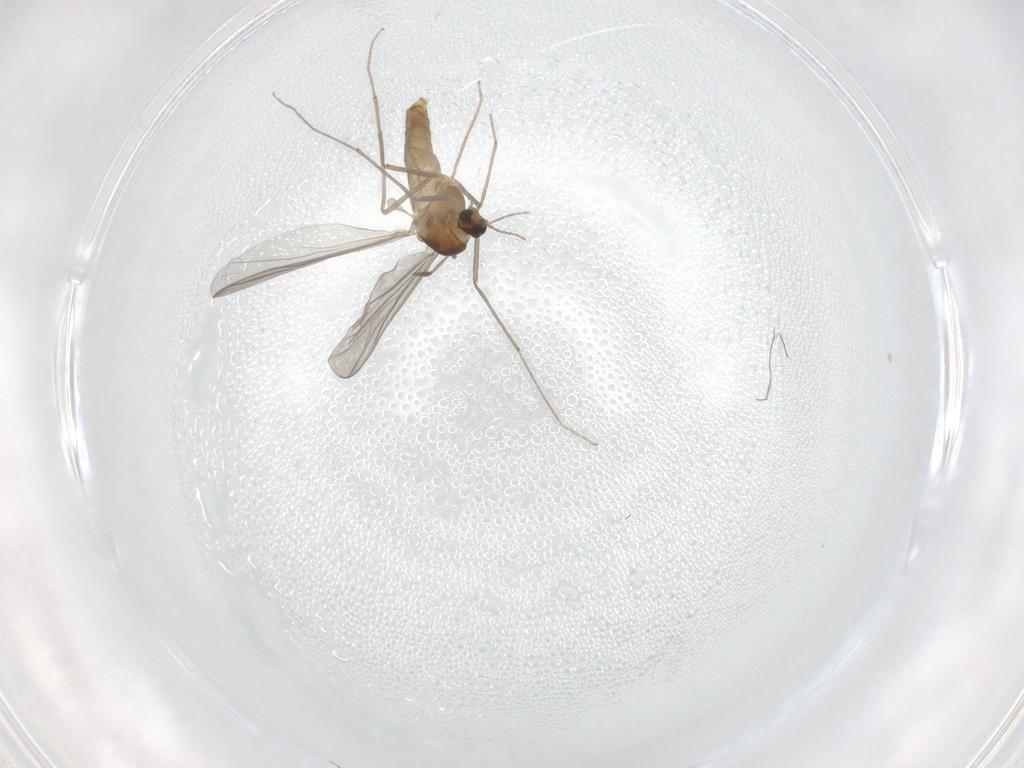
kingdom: Animalia
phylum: Arthropoda
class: Insecta
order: Diptera
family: Chironomidae
